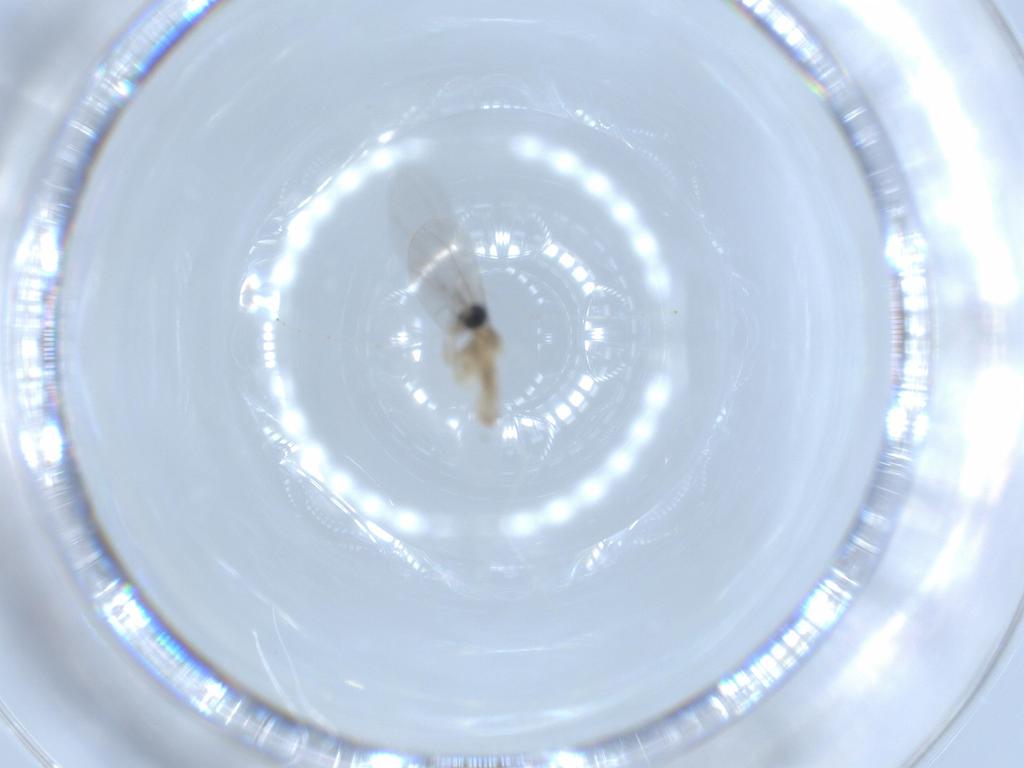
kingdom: Animalia
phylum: Arthropoda
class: Insecta
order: Diptera
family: Cecidomyiidae
